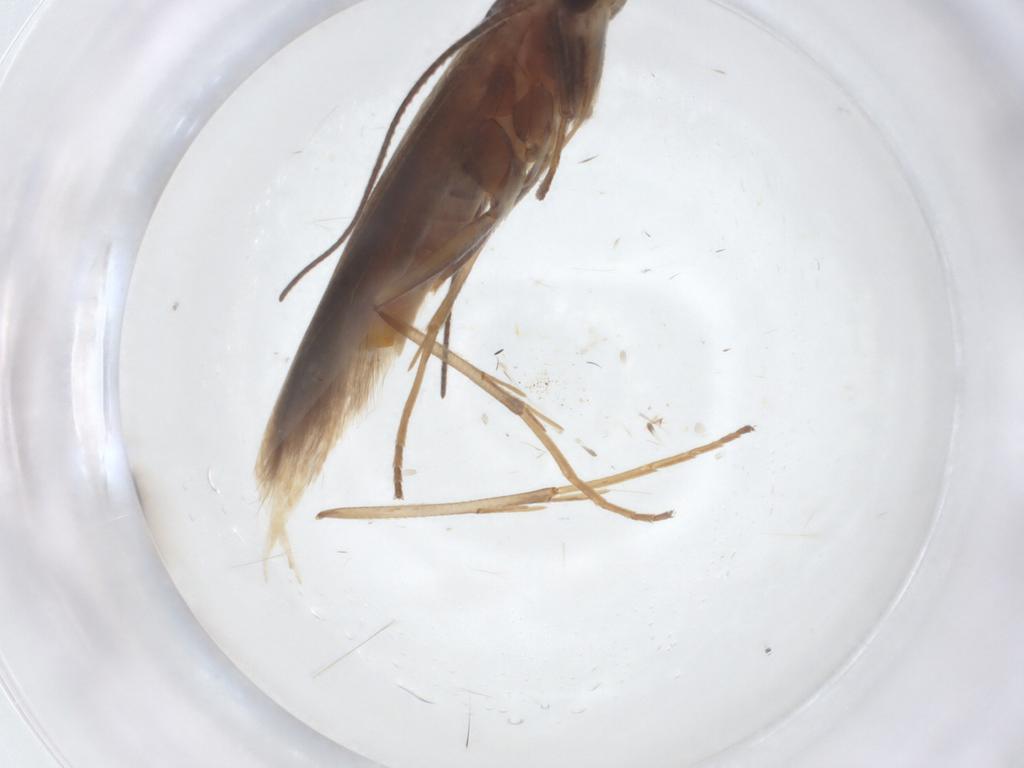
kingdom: Animalia
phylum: Arthropoda
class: Insecta
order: Lepidoptera
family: Coleophoridae
